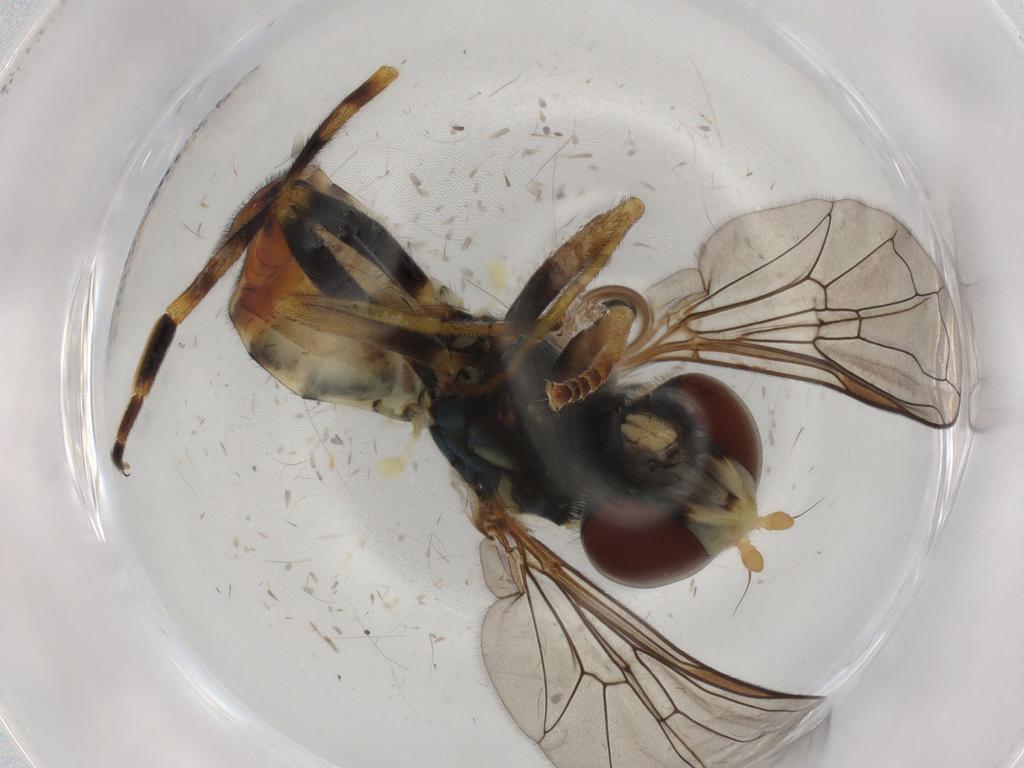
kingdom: Animalia
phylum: Arthropoda
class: Insecta
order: Diptera
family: Syrphidae
